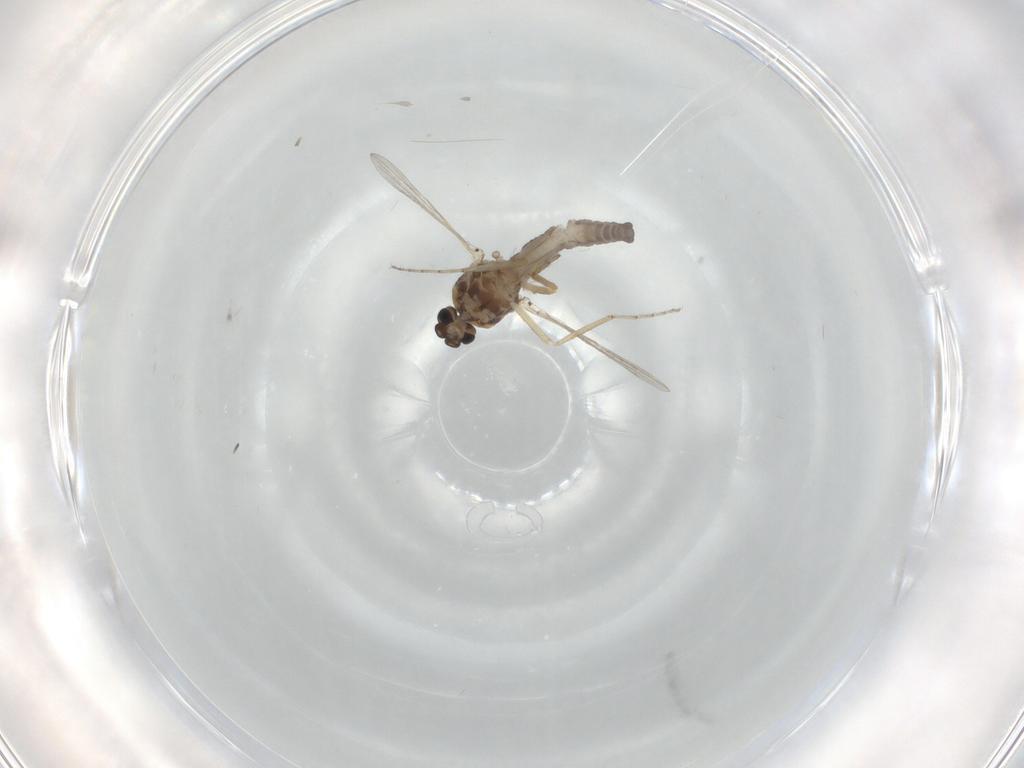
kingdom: Animalia
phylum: Arthropoda
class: Insecta
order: Diptera
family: Ceratopogonidae
